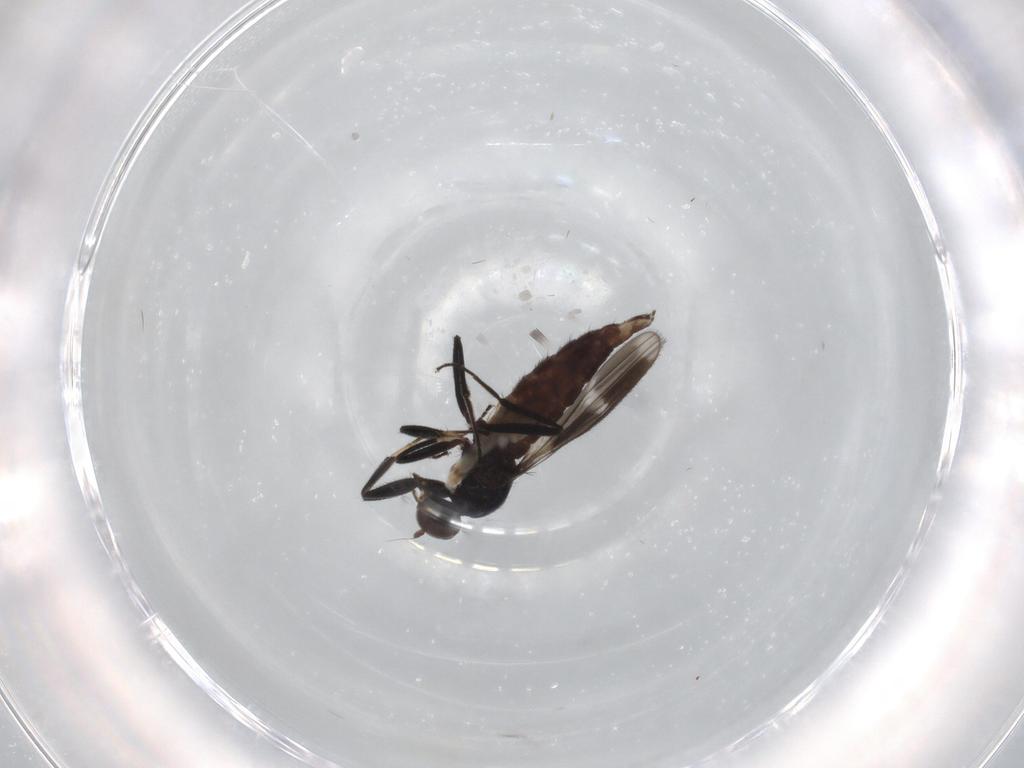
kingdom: Animalia
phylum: Arthropoda
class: Insecta
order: Diptera
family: Hybotidae
